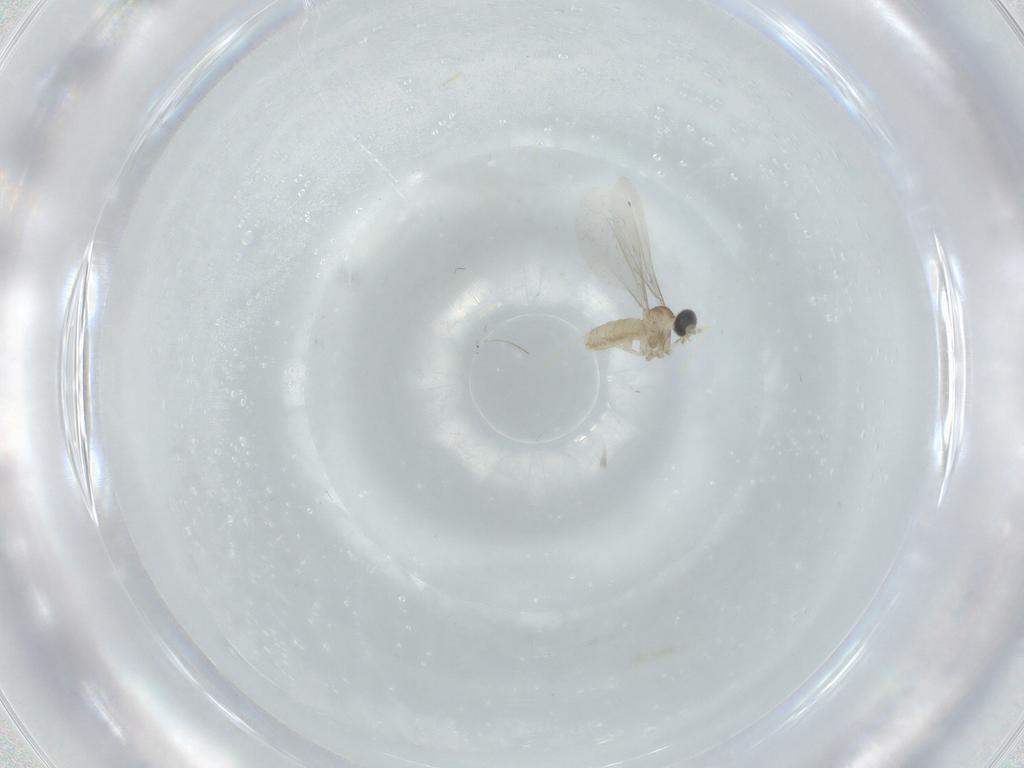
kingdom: Animalia
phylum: Arthropoda
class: Insecta
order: Diptera
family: Cecidomyiidae
